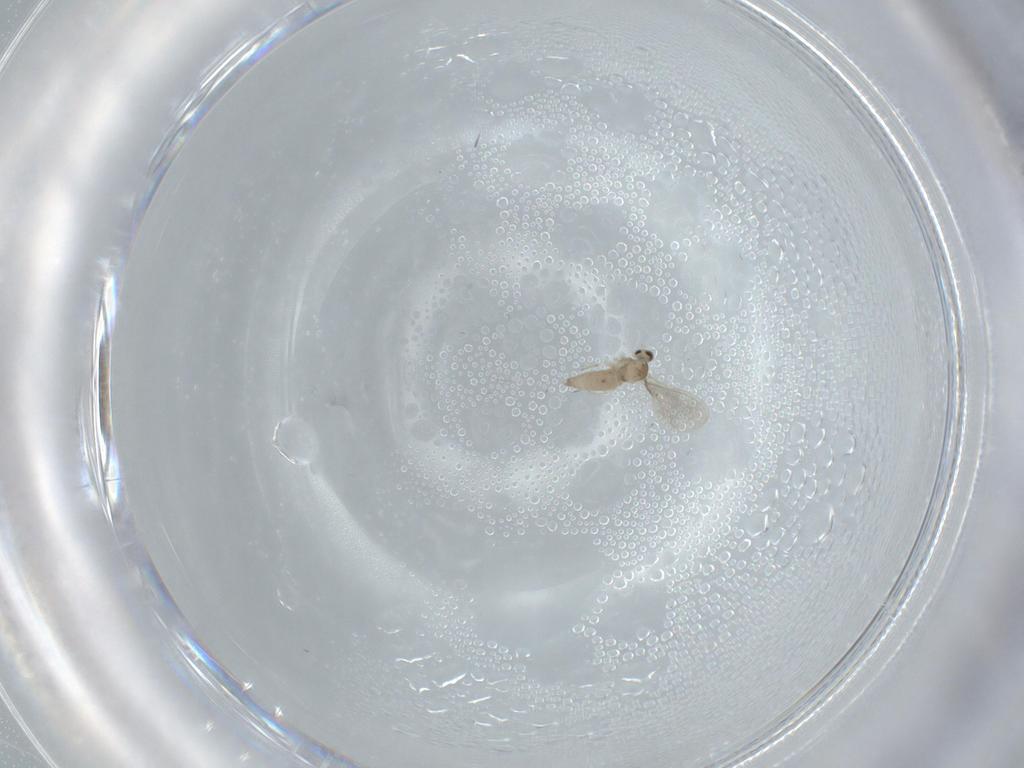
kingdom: Animalia
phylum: Arthropoda
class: Insecta
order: Diptera
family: Cecidomyiidae
